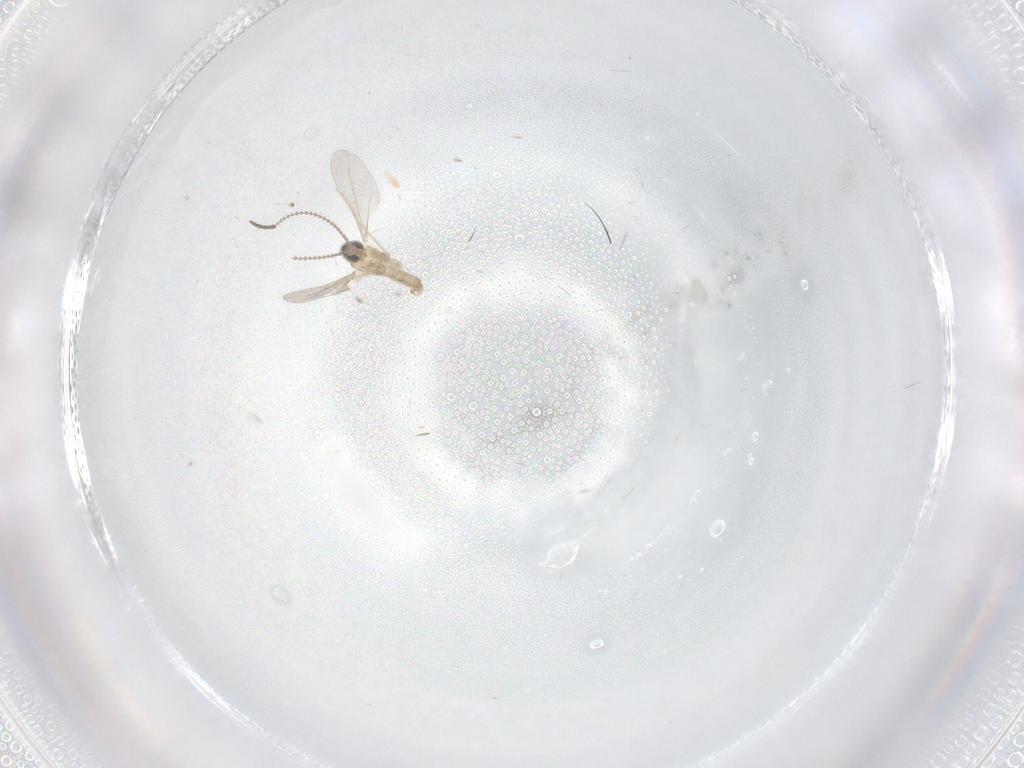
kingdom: Animalia
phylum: Arthropoda
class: Insecta
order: Diptera
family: Cecidomyiidae
